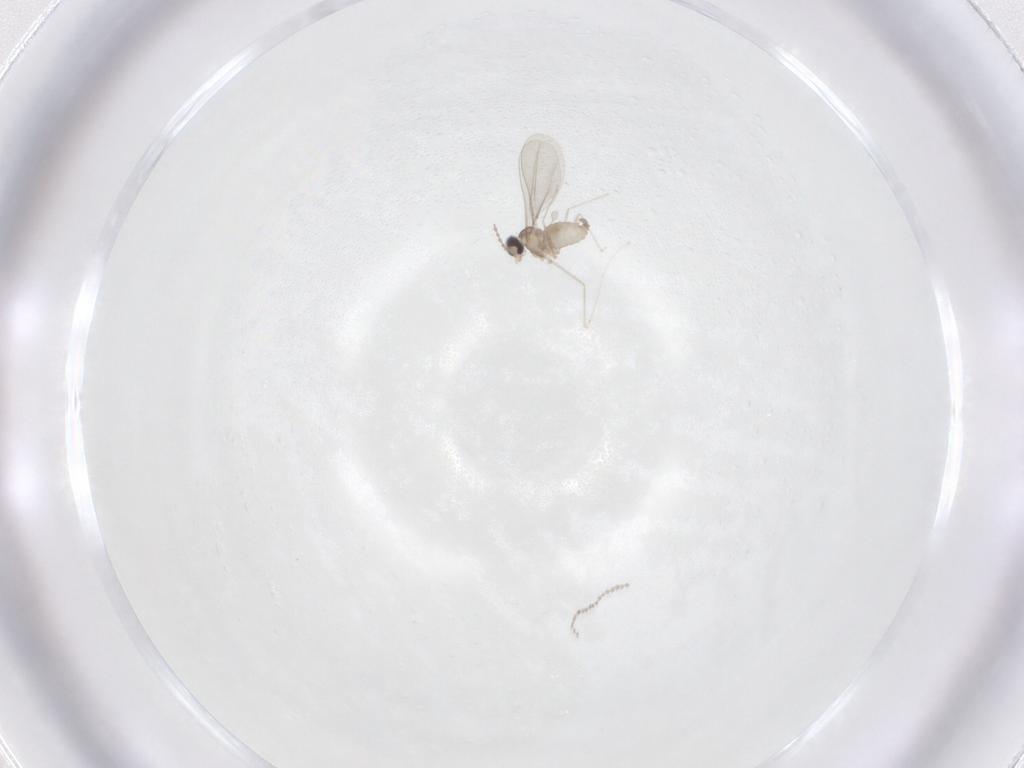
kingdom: Animalia
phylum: Arthropoda
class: Insecta
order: Diptera
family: Cecidomyiidae
